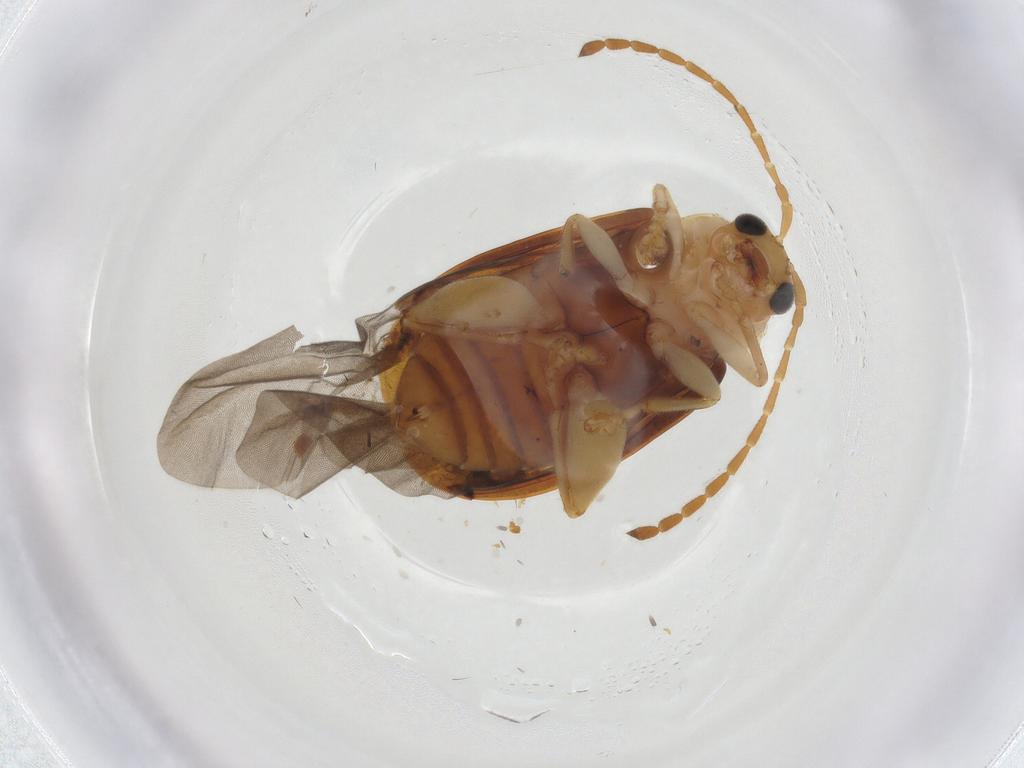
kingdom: Animalia
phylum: Arthropoda
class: Insecta
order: Coleoptera
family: Chrysomelidae
